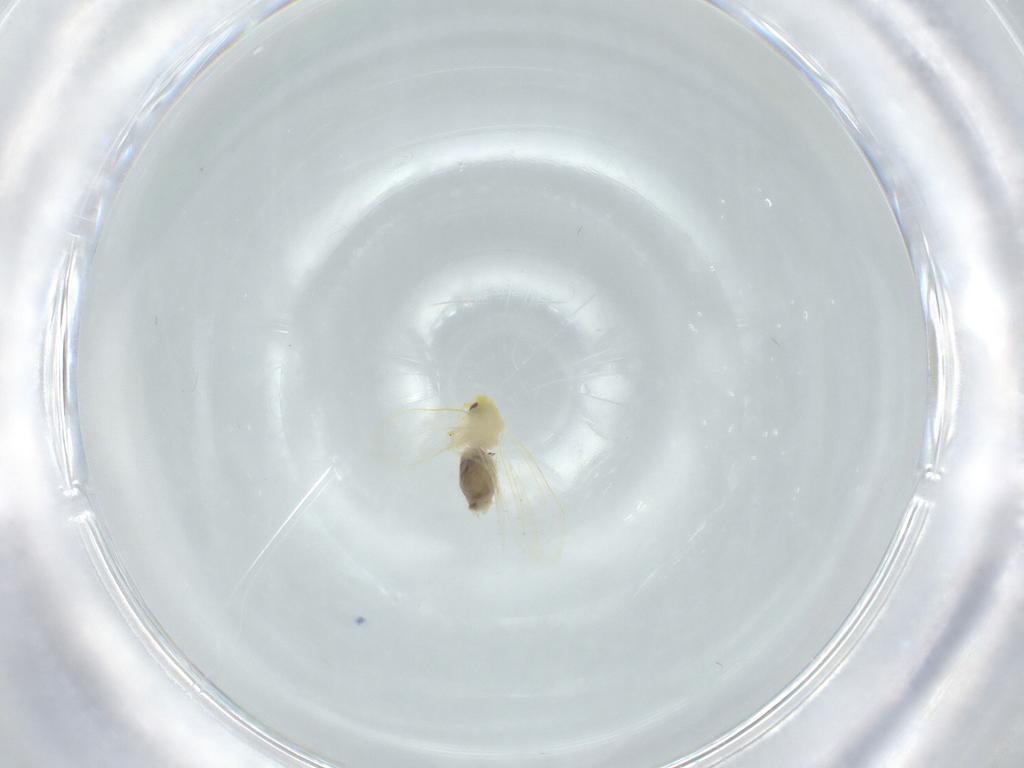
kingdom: Animalia
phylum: Arthropoda
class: Insecta
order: Hemiptera
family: Aleyrodidae
